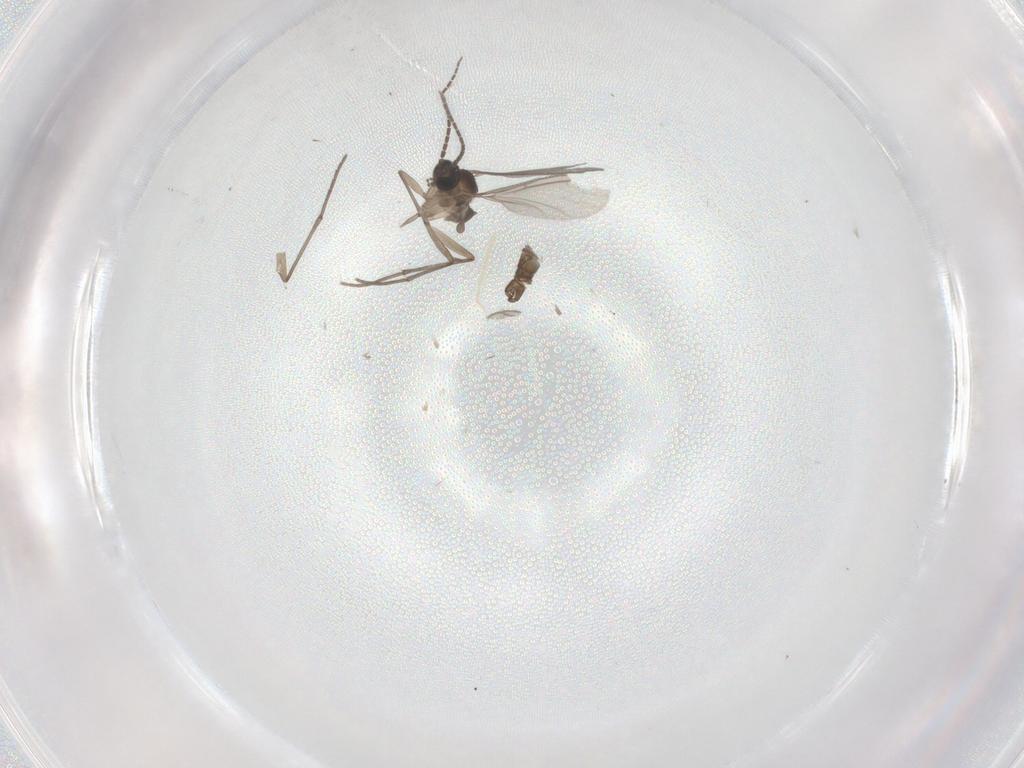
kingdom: Animalia
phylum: Arthropoda
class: Insecta
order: Diptera
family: Sciaridae
